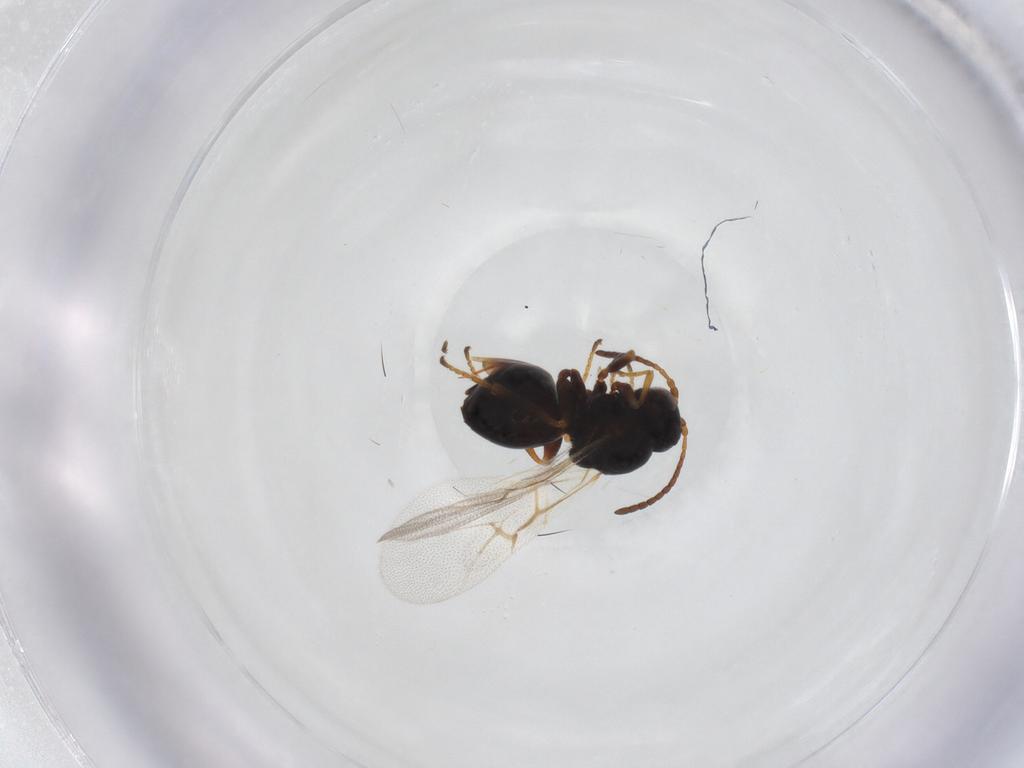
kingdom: Animalia
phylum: Arthropoda
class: Insecta
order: Hymenoptera
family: Cynipidae
